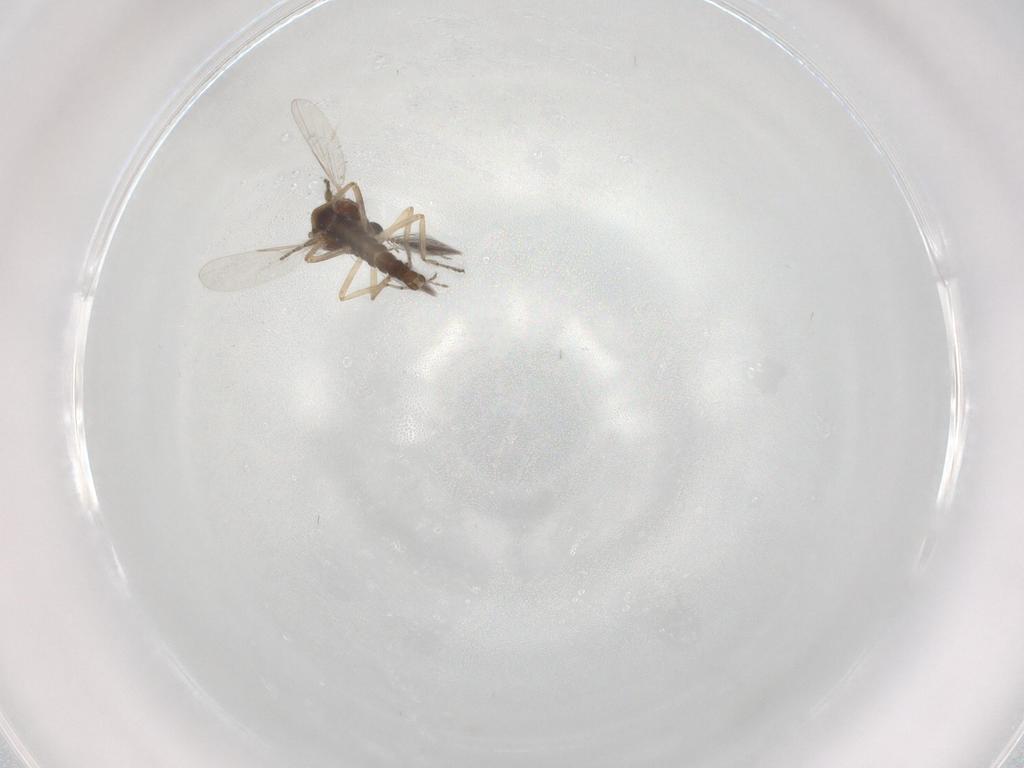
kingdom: Animalia
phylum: Arthropoda
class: Insecta
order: Diptera
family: Ceratopogonidae
